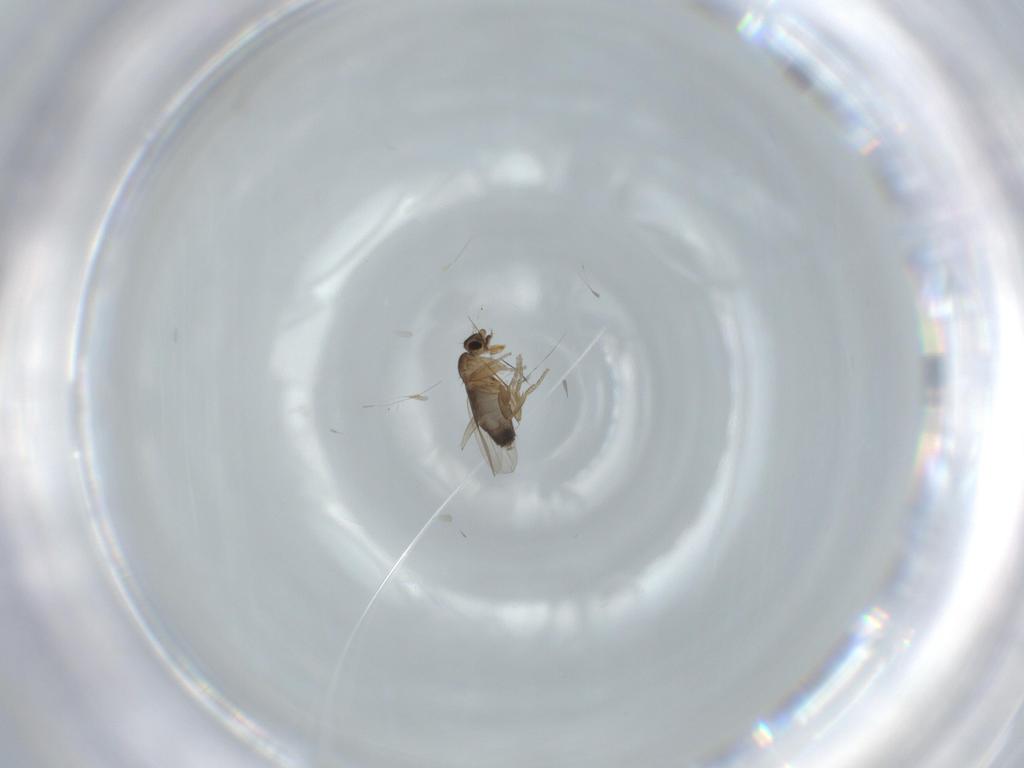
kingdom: Animalia
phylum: Arthropoda
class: Insecta
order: Diptera
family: Phoridae
